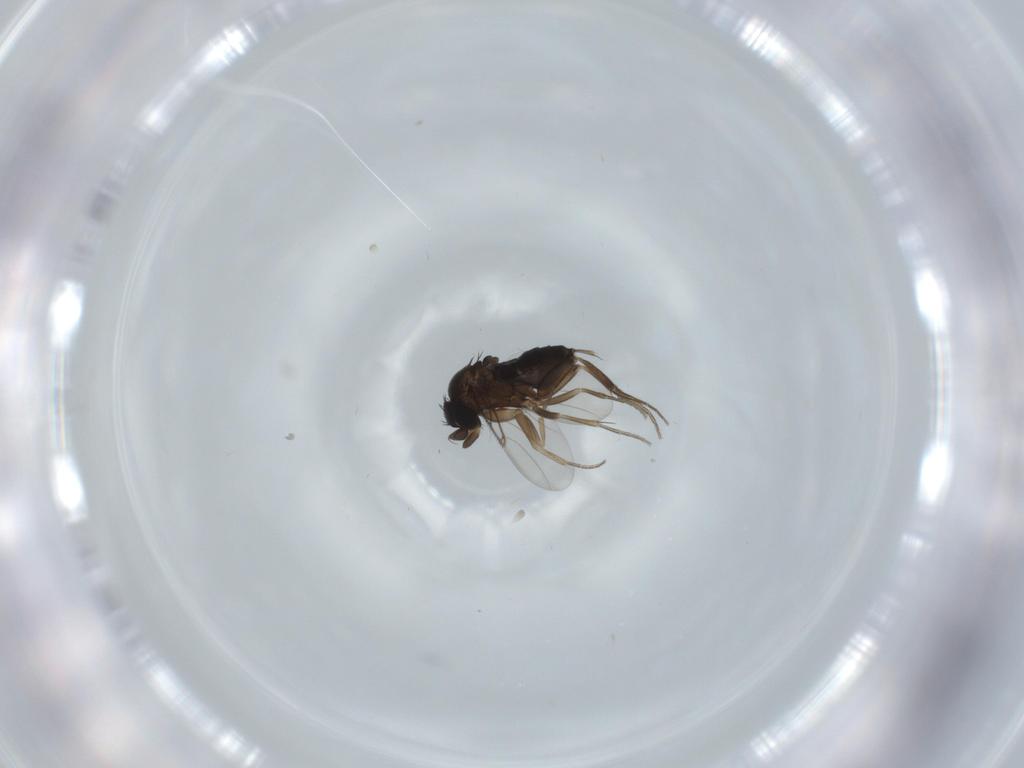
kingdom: Animalia
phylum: Arthropoda
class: Insecta
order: Diptera
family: Phoridae
